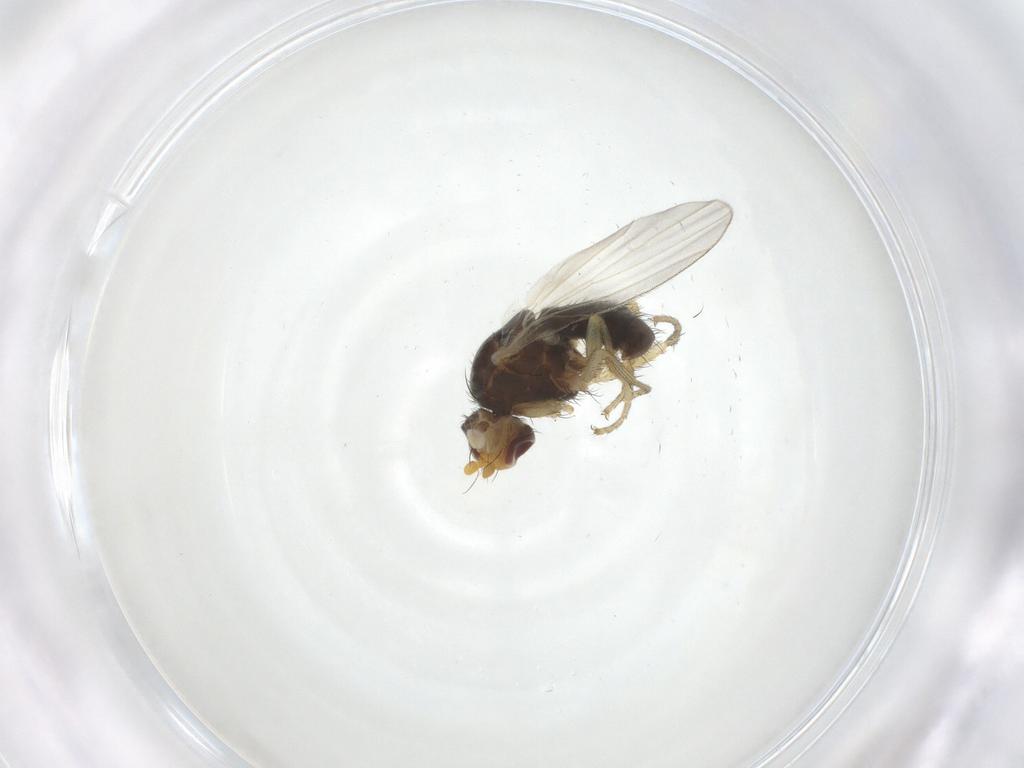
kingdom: Animalia
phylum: Arthropoda
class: Insecta
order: Diptera
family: Heleomyzidae
